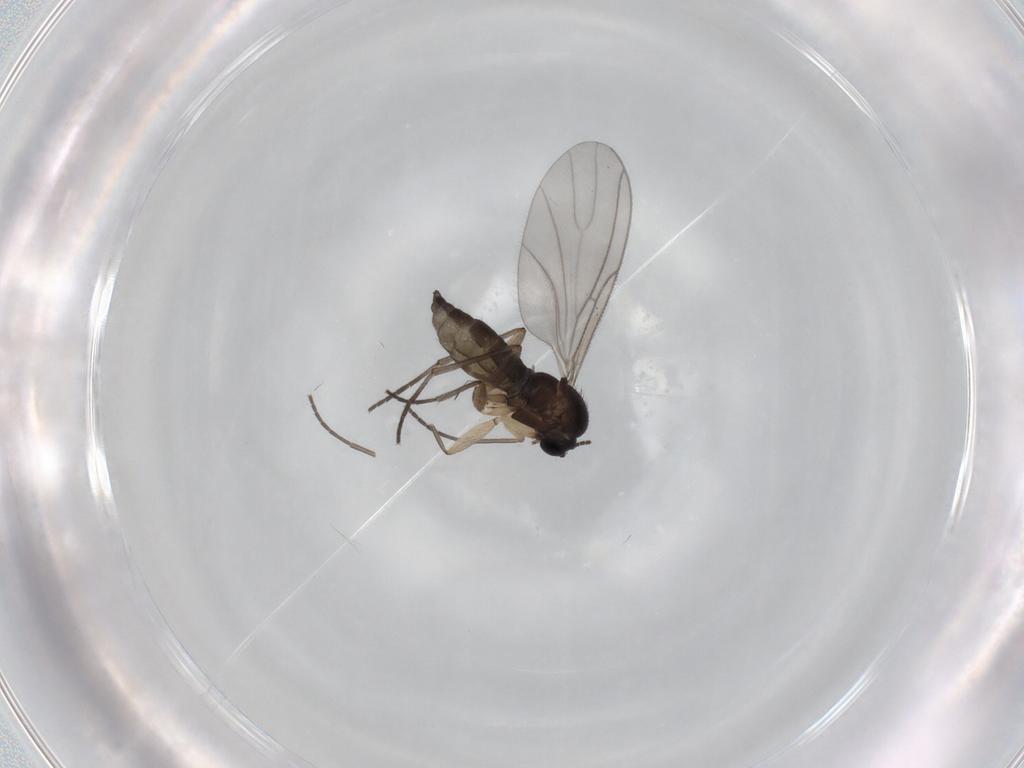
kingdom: Animalia
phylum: Arthropoda
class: Insecta
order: Diptera
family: Sciaridae
